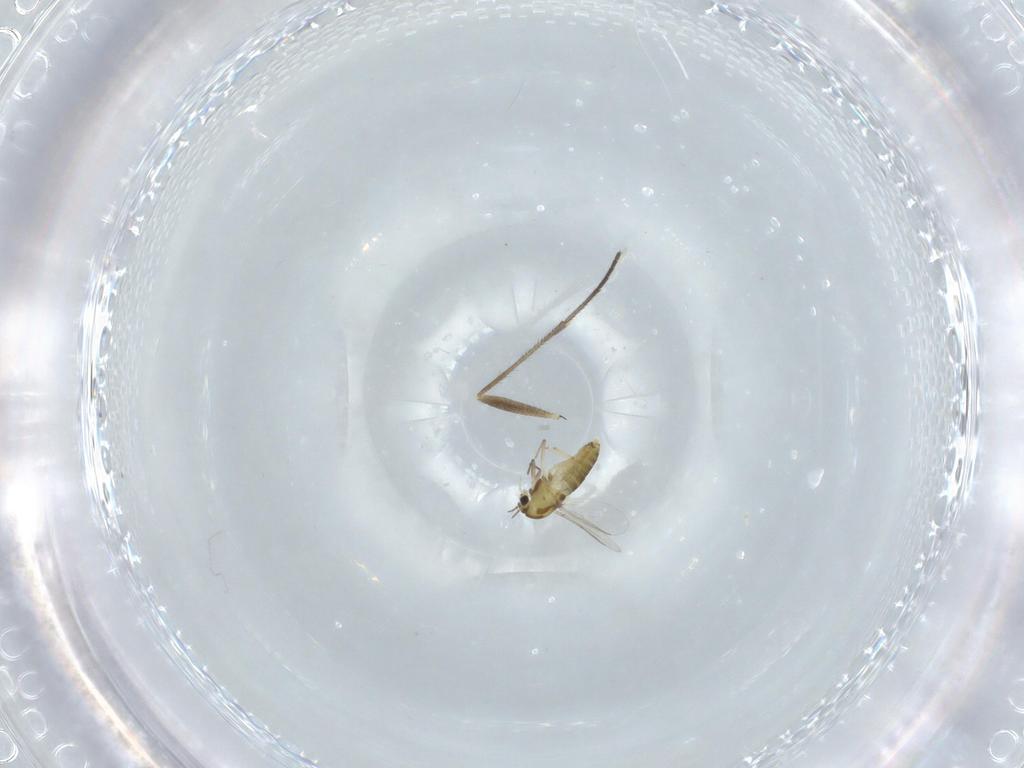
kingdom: Animalia
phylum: Arthropoda
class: Insecta
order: Diptera
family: Chironomidae
